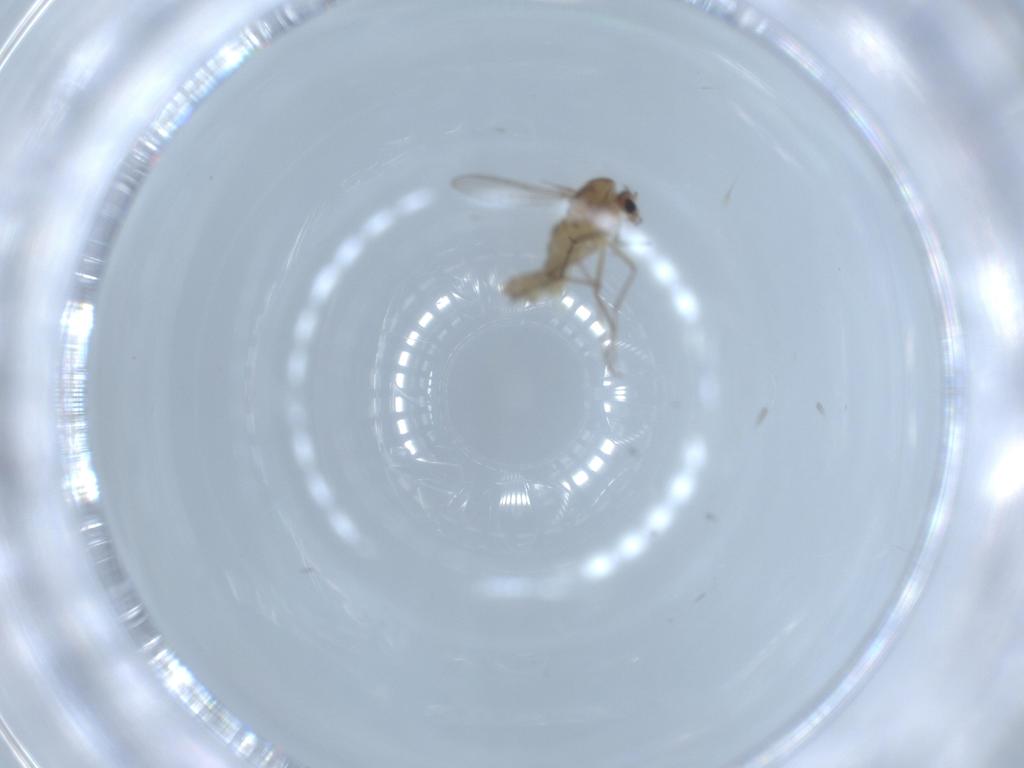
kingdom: Animalia
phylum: Arthropoda
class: Insecta
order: Diptera
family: Chironomidae
